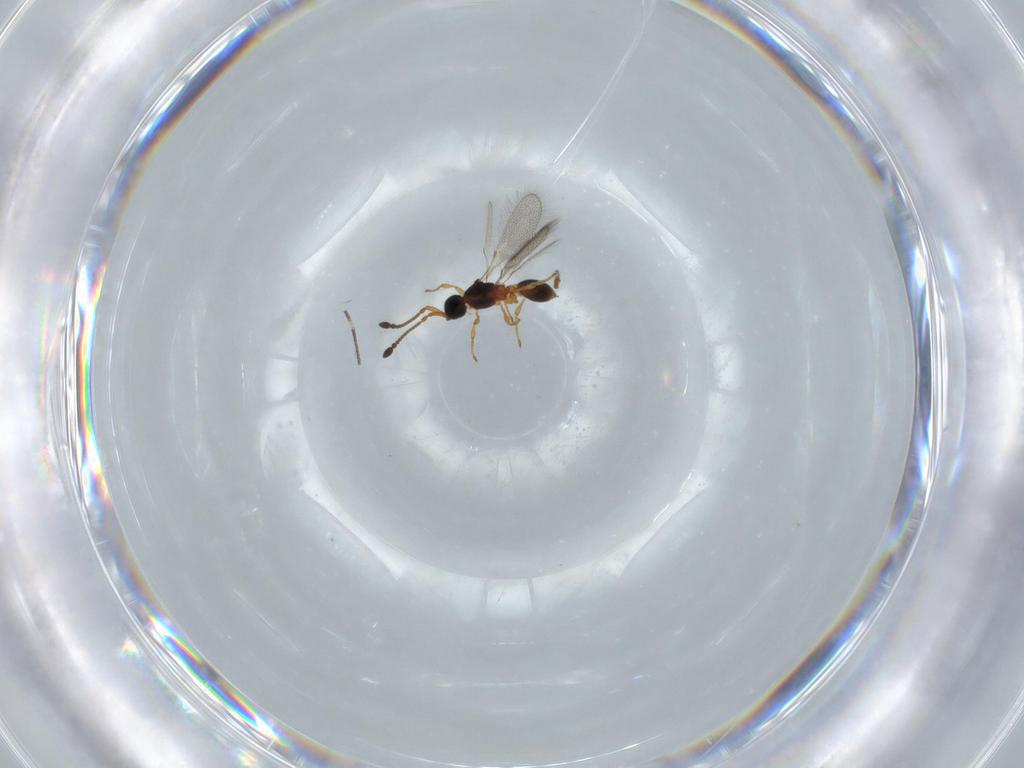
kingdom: Animalia
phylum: Arthropoda
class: Insecta
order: Hymenoptera
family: Diapriidae
